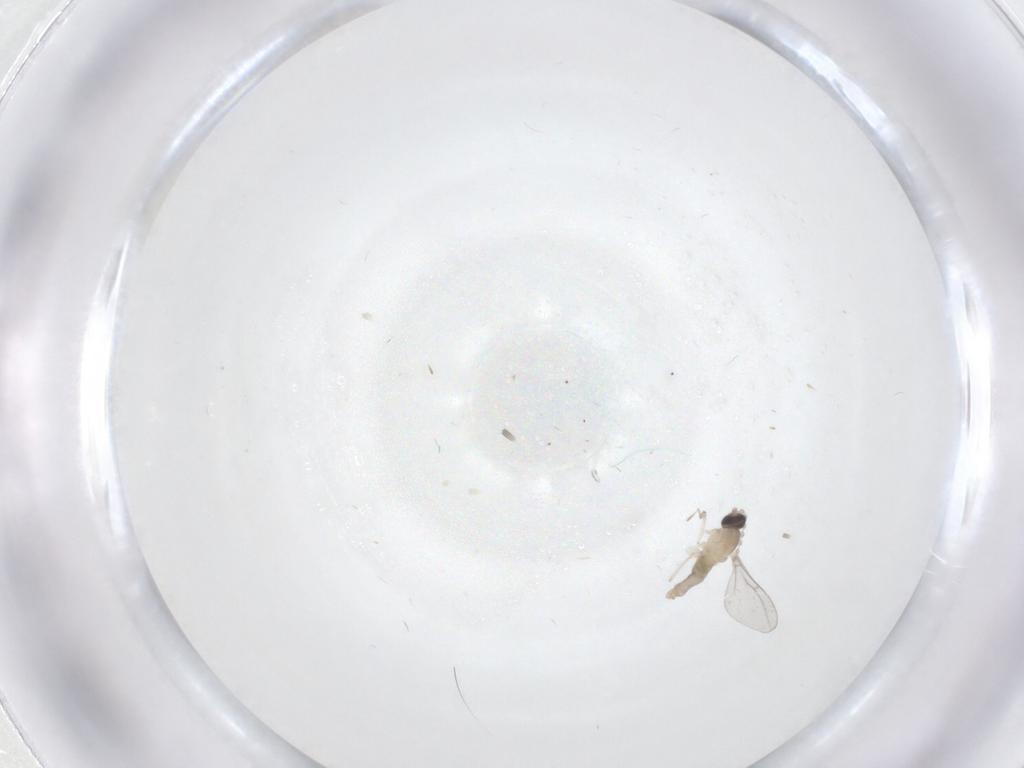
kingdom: Animalia
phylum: Arthropoda
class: Insecta
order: Diptera
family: Cecidomyiidae
